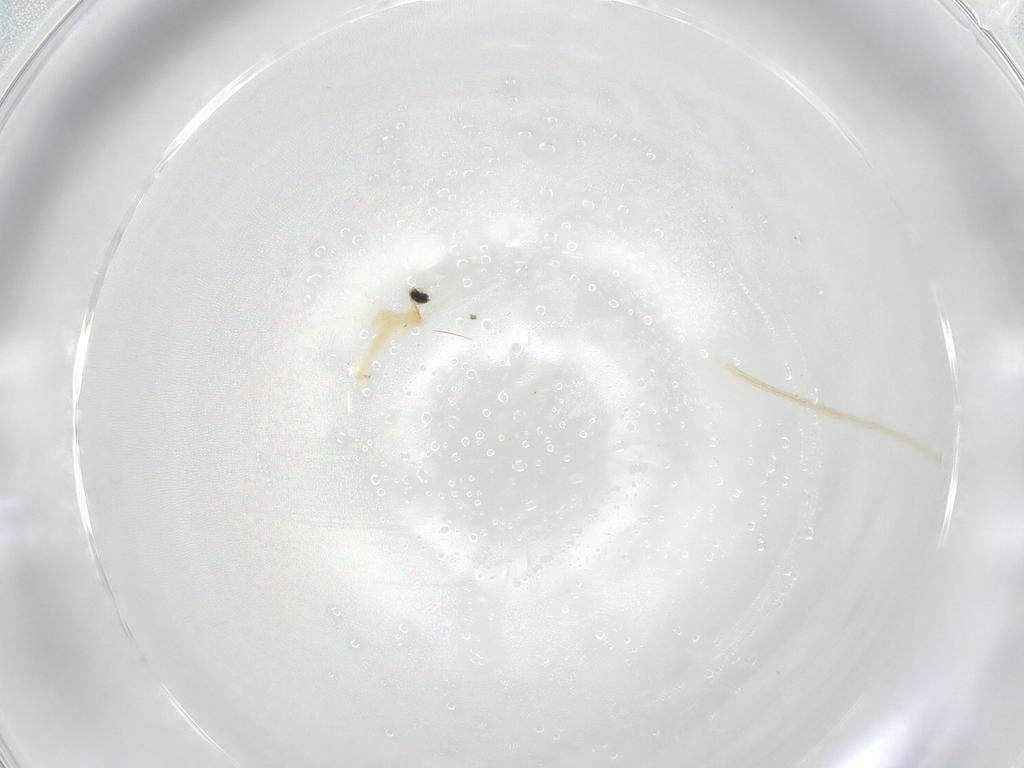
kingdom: Animalia
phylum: Arthropoda
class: Insecta
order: Diptera
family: Cecidomyiidae
